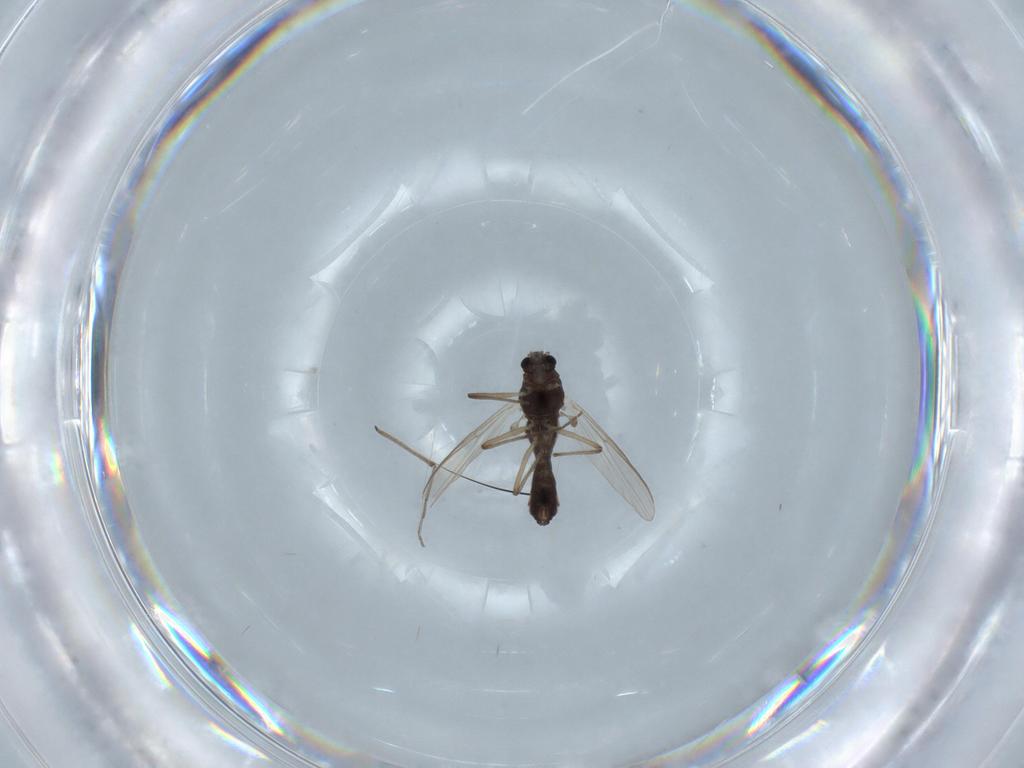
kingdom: Animalia
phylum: Arthropoda
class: Insecta
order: Diptera
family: Chironomidae
